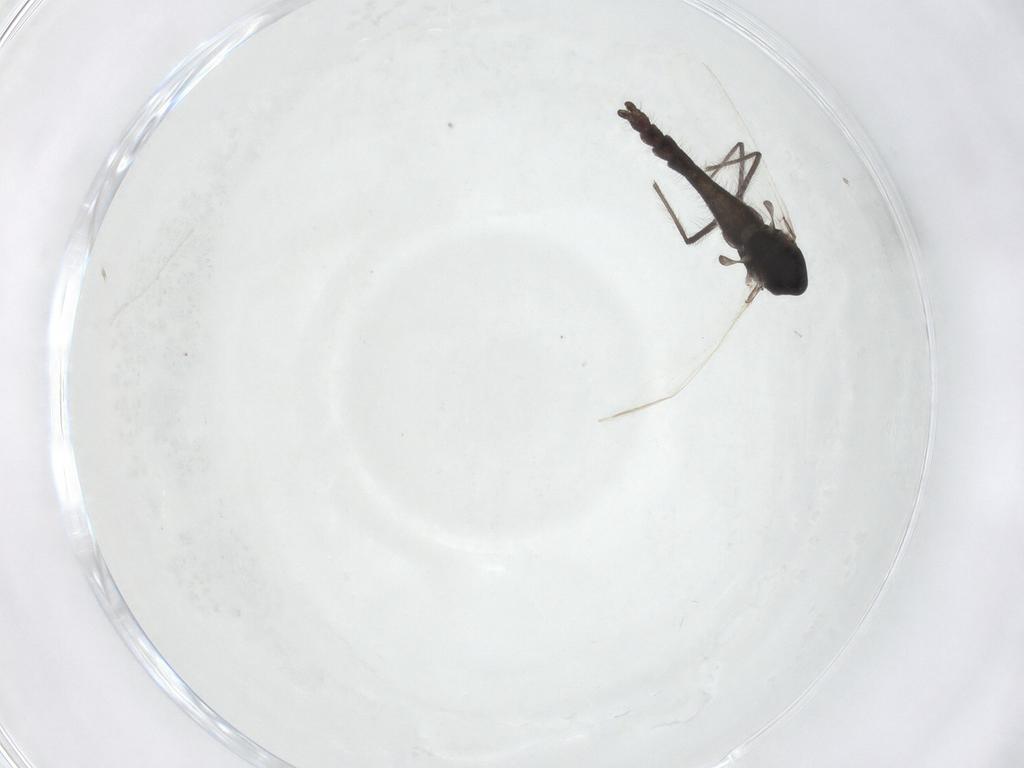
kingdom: Animalia
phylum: Arthropoda
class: Insecta
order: Diptera
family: Chironomidae
